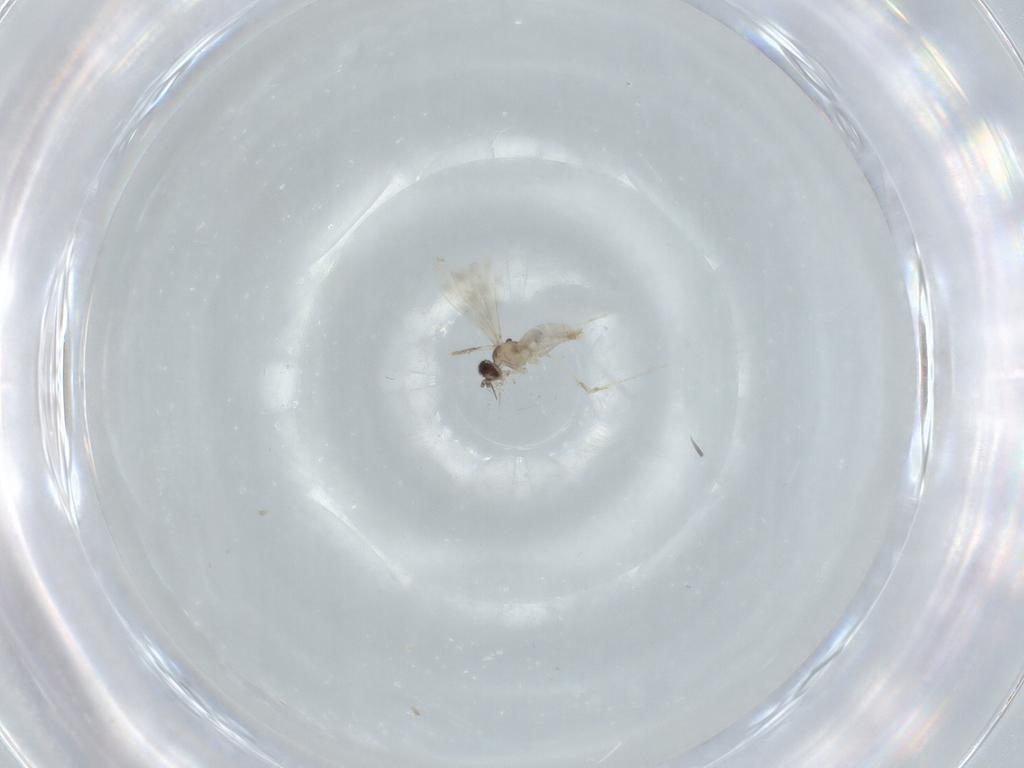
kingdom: Animalia
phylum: Arthropoda
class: Insecta
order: Diptera
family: Cecidomyiidae
